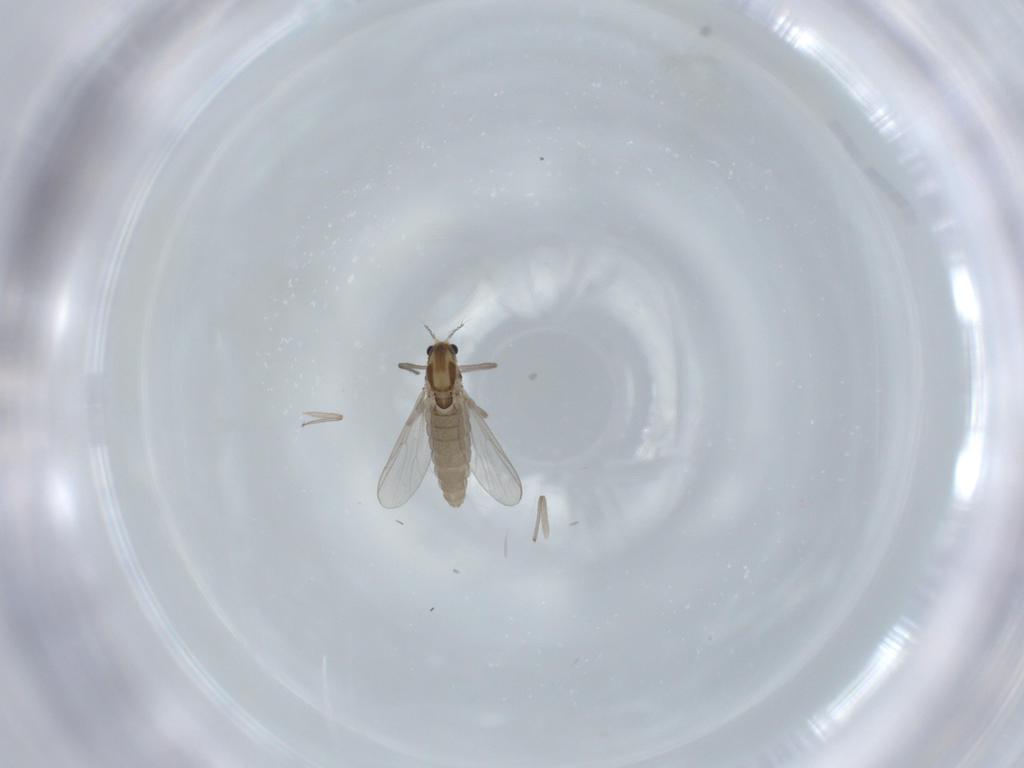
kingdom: Animalia
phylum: Arthropoda
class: Insecta
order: Diptera
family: Chironomidae
